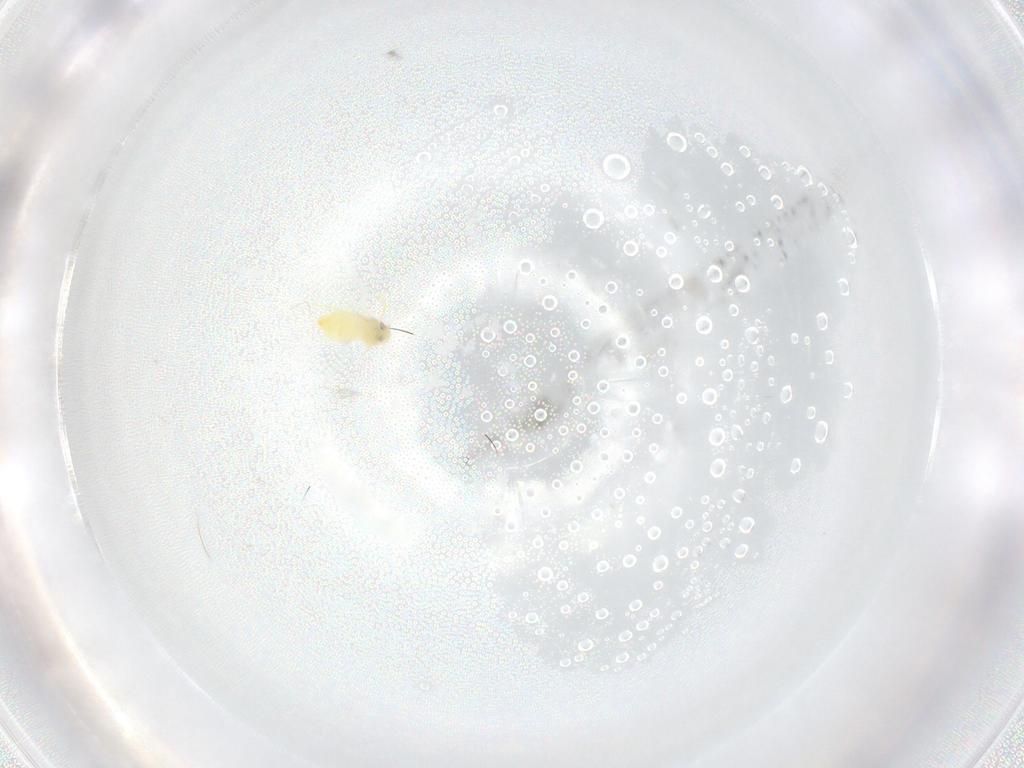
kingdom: Animalia
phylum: Arthropoda
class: Insecta
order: Hemiptera
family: Aleyrodidae
